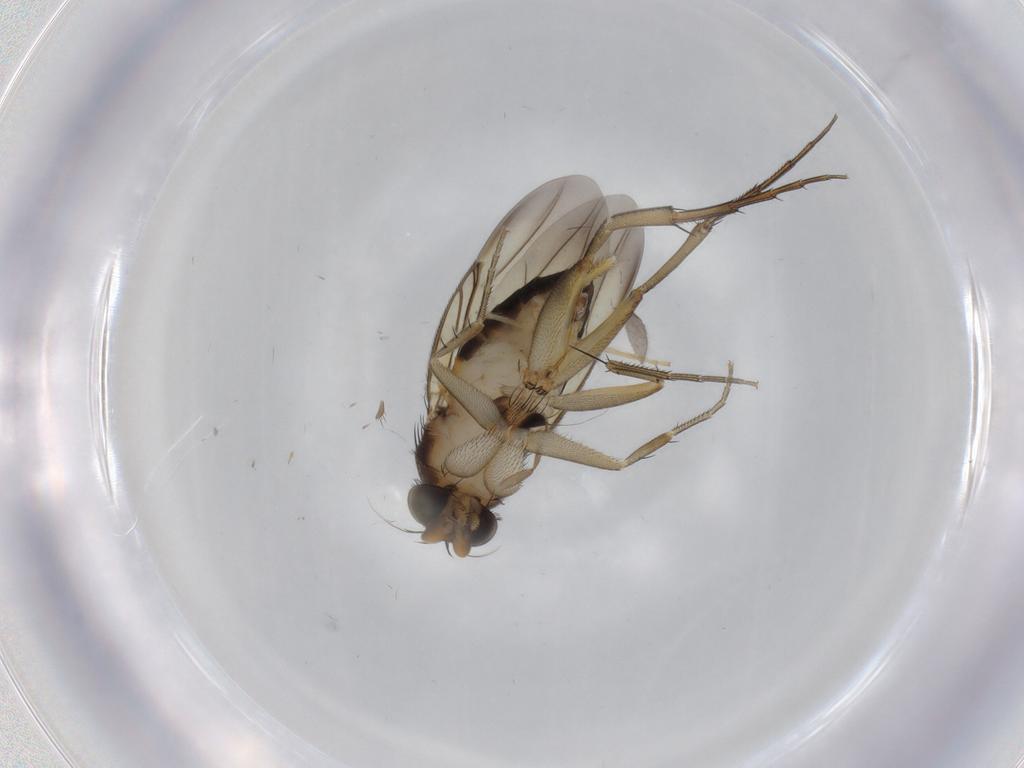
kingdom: Animalia
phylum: Arthropoda
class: Insecta
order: Diptera
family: Phoridae
